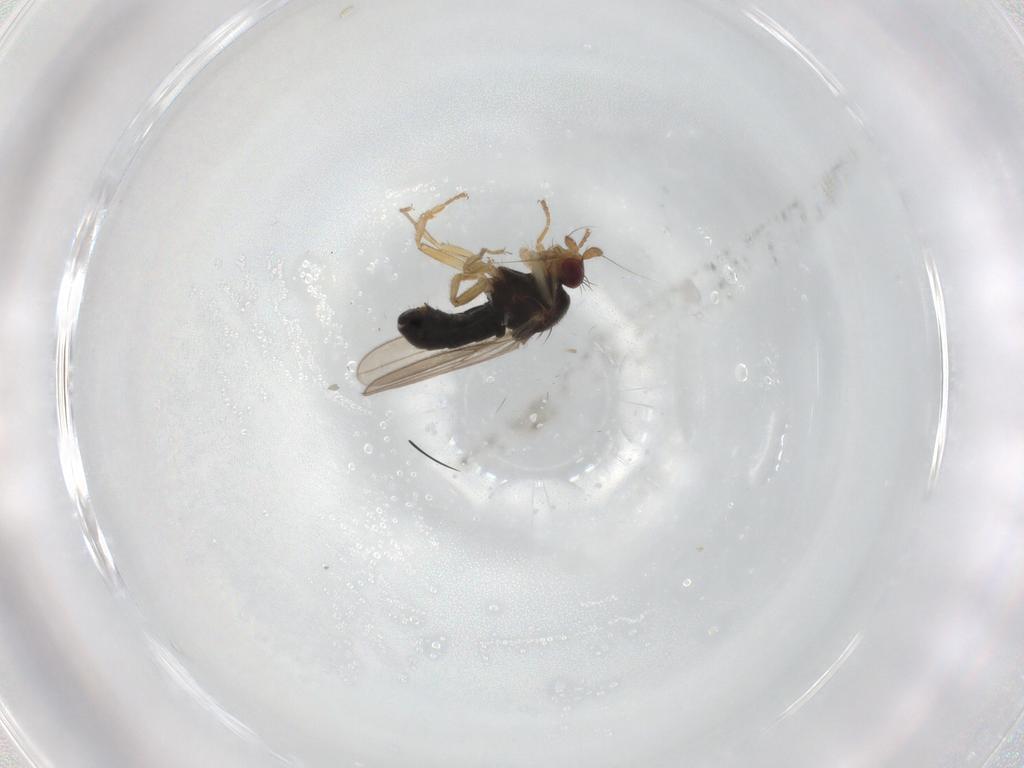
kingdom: Animalia
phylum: Arthropoda
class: Insecta
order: Diptera
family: Sphaeroceridae
